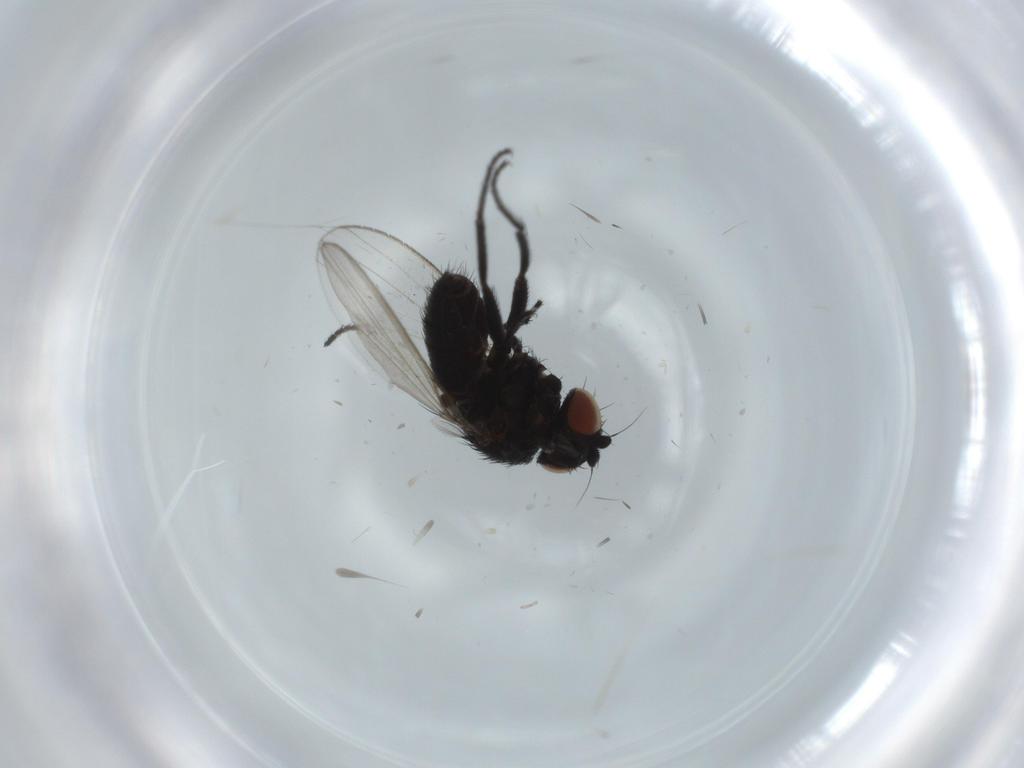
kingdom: Animalia
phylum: Arthropoda
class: Insecta
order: Diptera
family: Milichiidae
